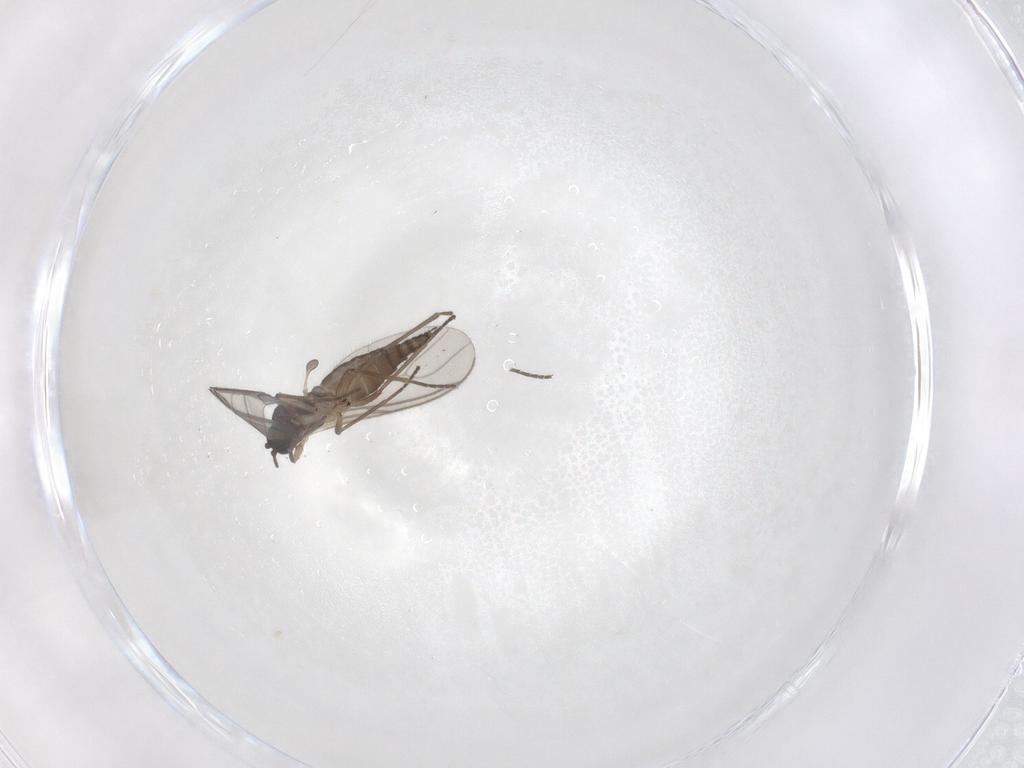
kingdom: Animalia
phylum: Arthropoda
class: Insecta
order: Diptera
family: Sciaridae
